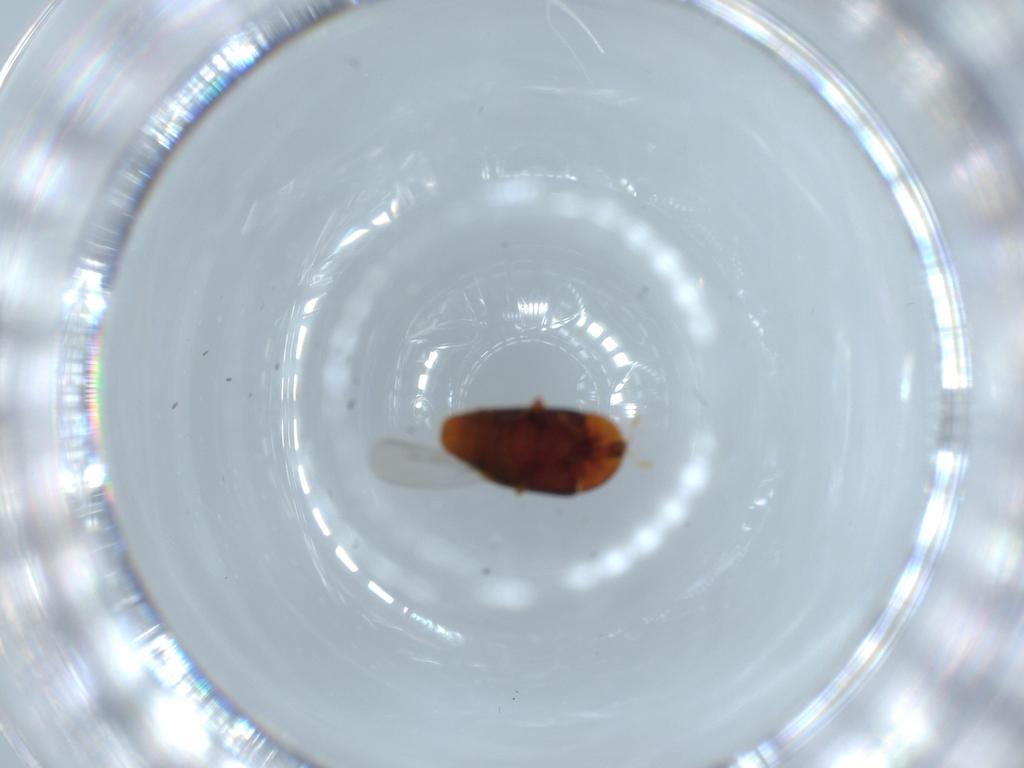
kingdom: Animalia
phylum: Arthropoda
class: Insecta
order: Coleoptera
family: Corylophidae
